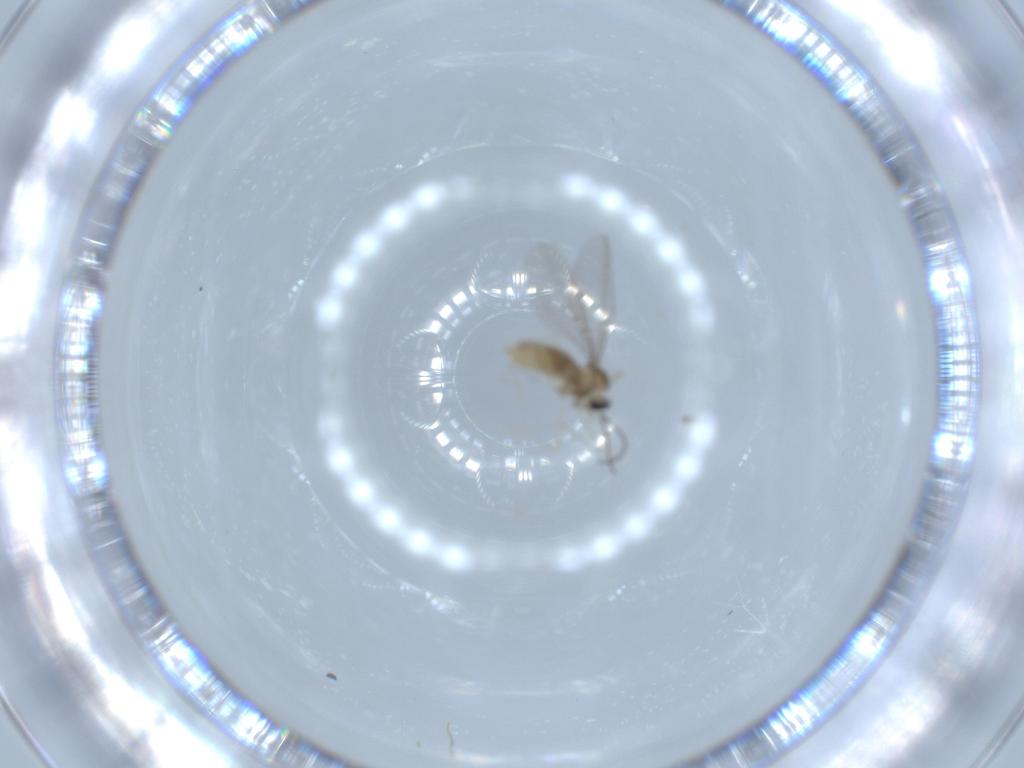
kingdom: Animalia
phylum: Arthropoda
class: Insecta
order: Diptera
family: Cecidomyiidae
